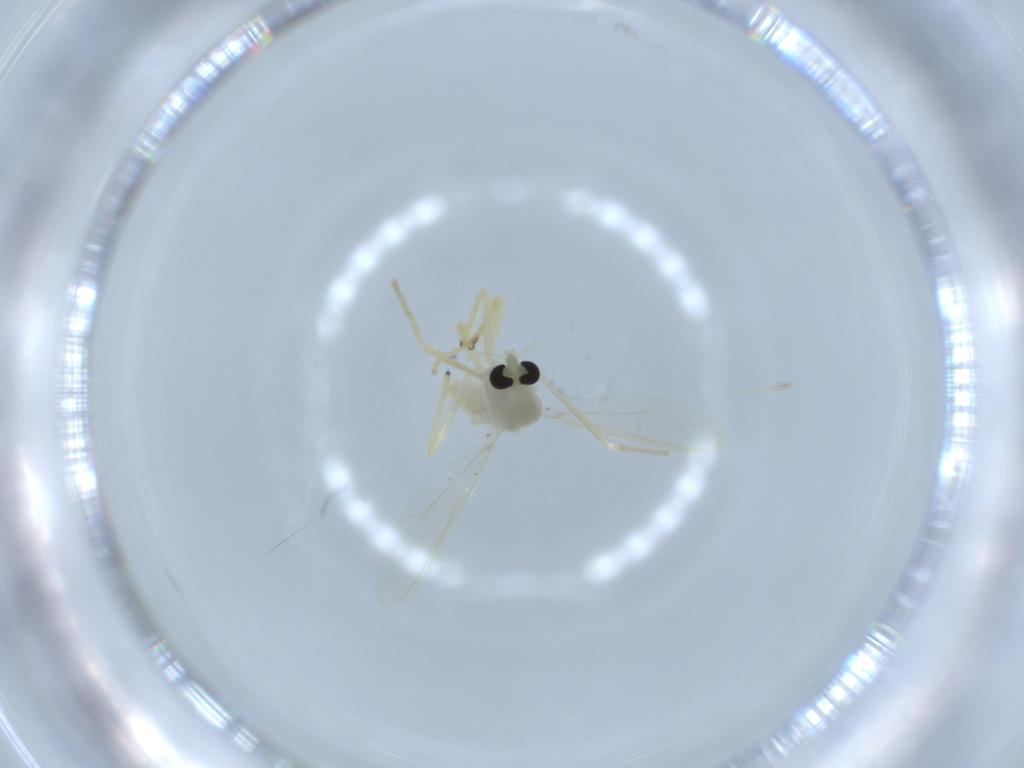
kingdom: Animalia
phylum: Arthropoda
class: Insecta
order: Diptera
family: Chironomidae
